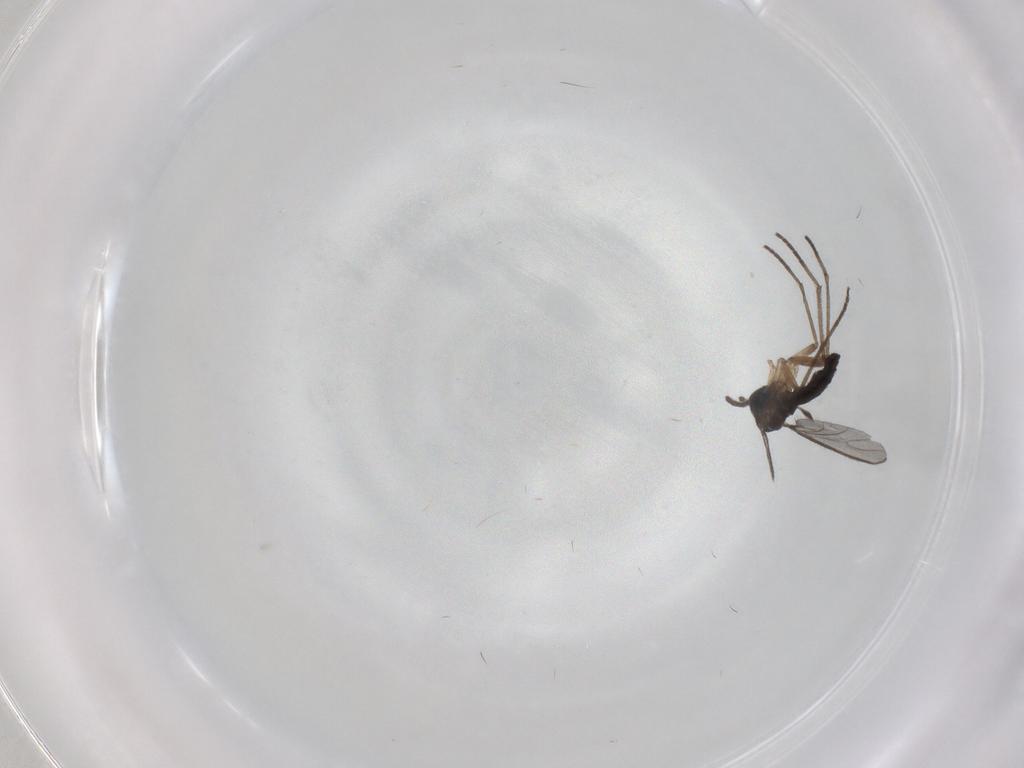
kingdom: Animalia
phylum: Arthropoda
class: Insecta
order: Diptera
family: Sciaridae
